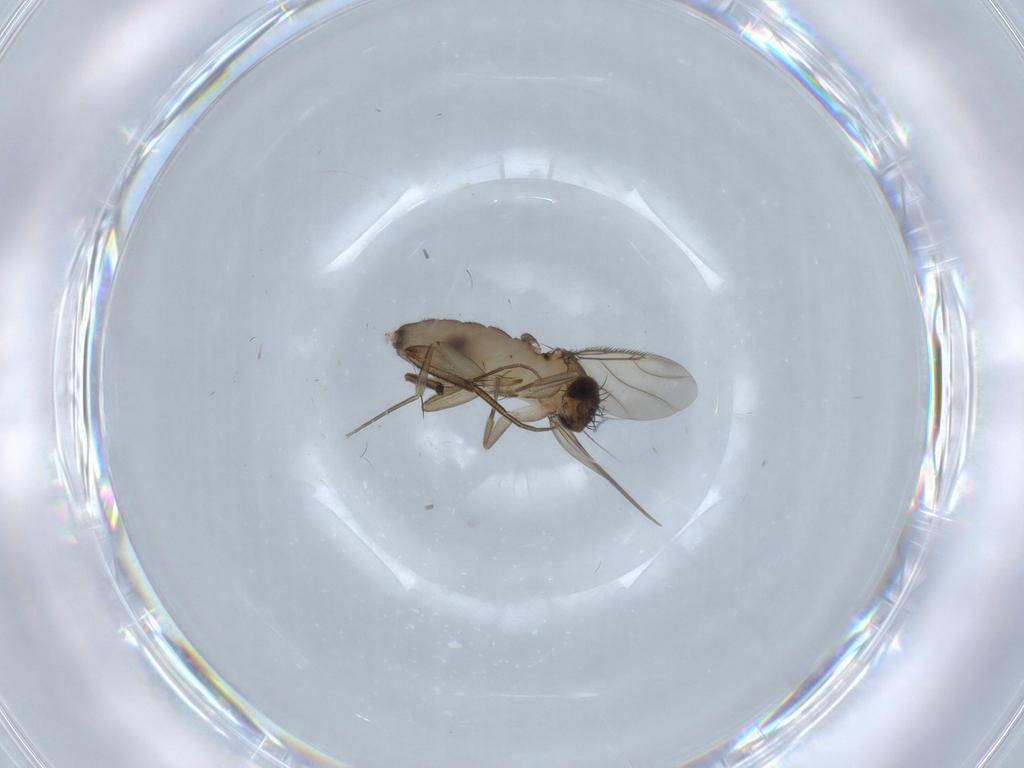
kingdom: Animalia
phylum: Arthropoda
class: Insecta
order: Diptera
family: Phoridae
